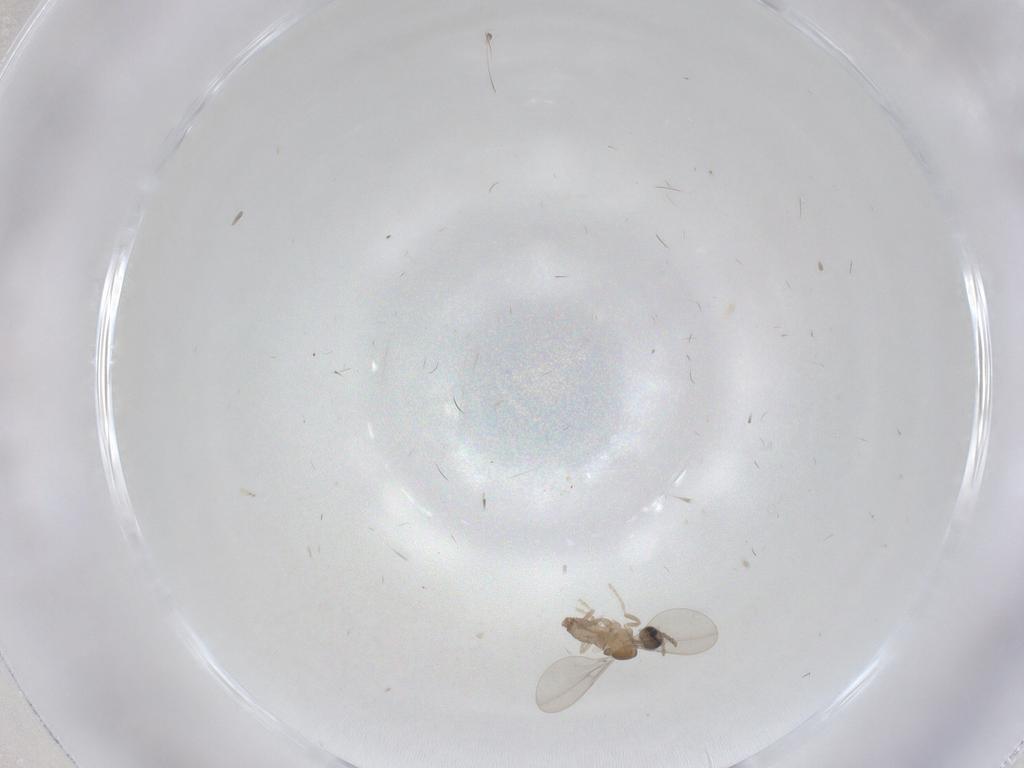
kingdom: Animalia
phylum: Arthropoda
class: Insecta
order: Diptera
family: Cecidomyiidae
